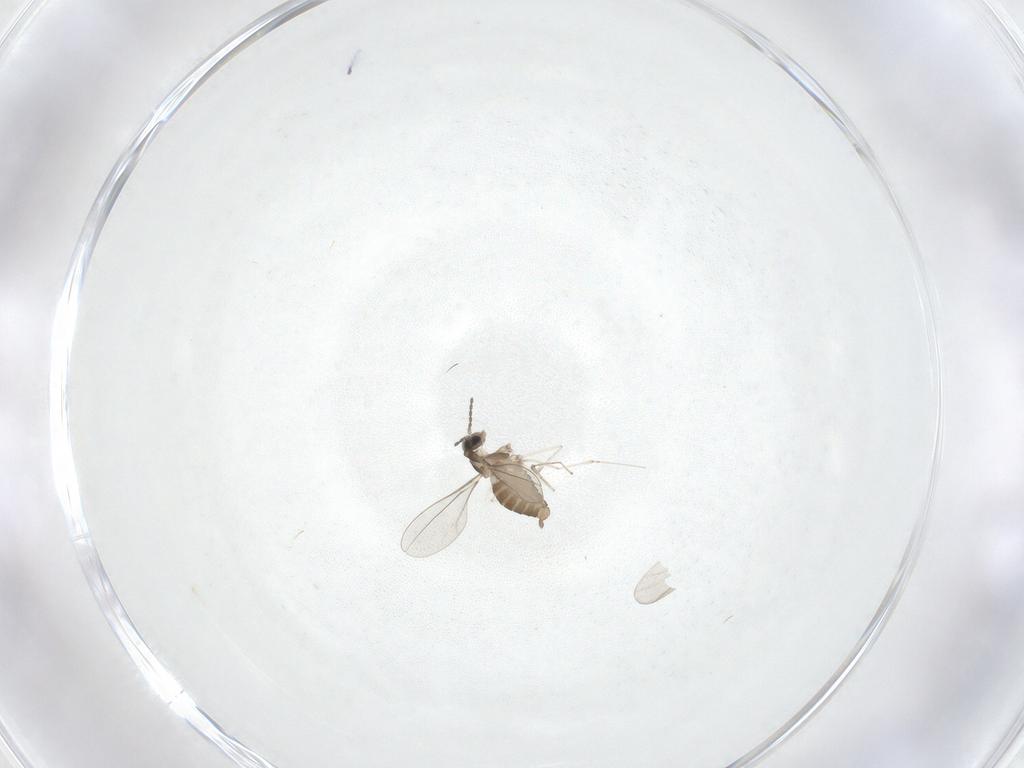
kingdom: Animalia
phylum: Arthropoda
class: Insecta
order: Diptera
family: Cecidomyiidae
